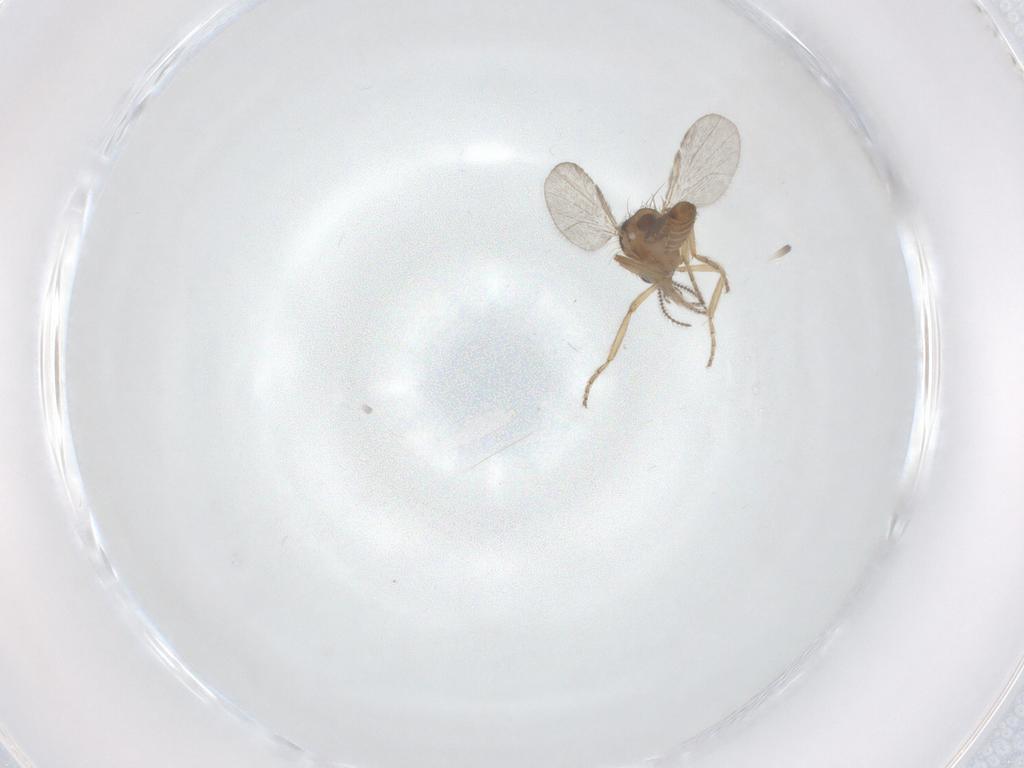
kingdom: Animalia
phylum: Arthropoda
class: Insecta
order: Diptera
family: Ceratopogonidae
